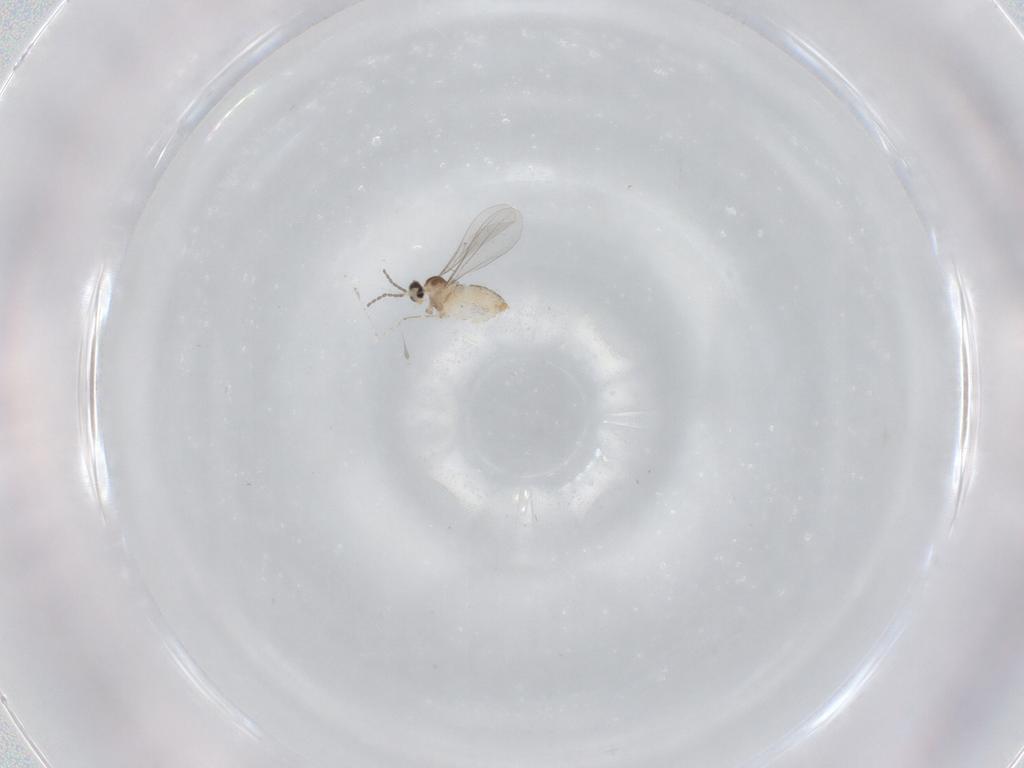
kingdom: Animalia
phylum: Arthropoda
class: Insecta
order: Diptera
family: Cecidomyiidae
